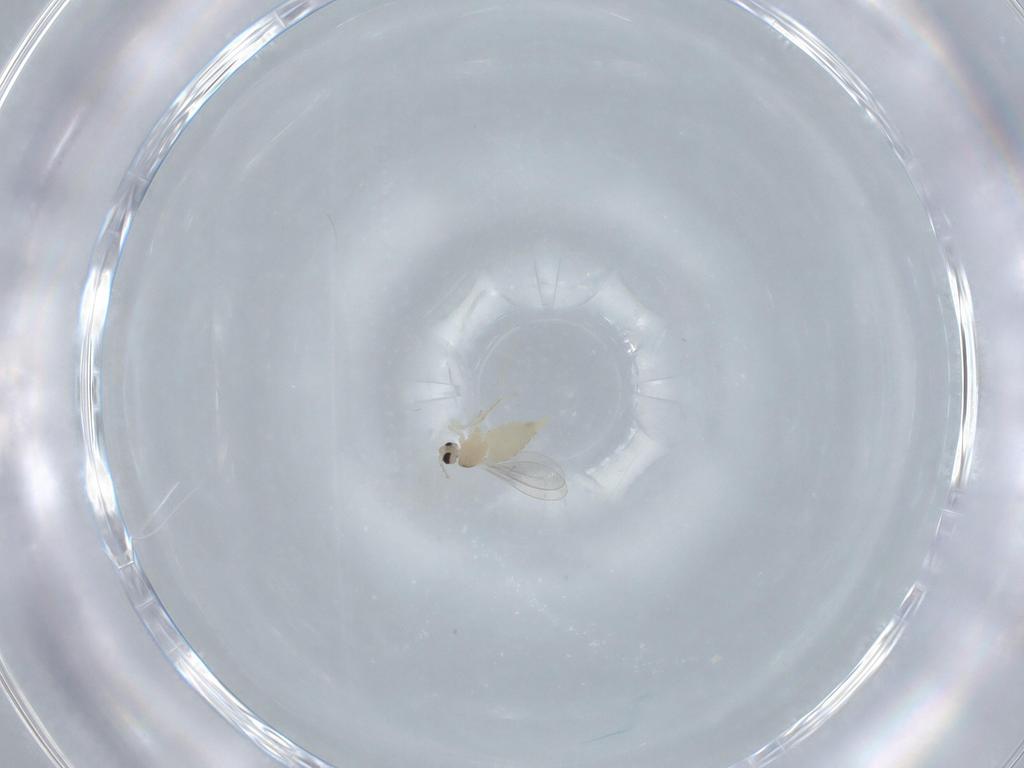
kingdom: Animalia
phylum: Arthropoda
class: Insecta
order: Diptera
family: Cecidomyiidae
